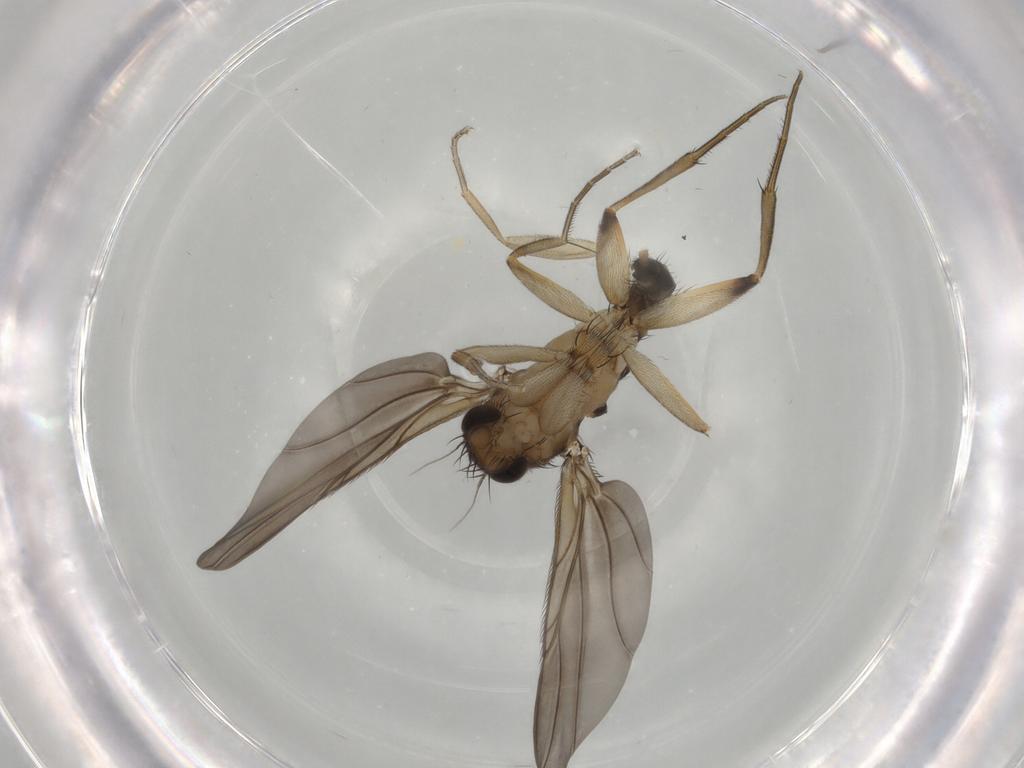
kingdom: Animalia
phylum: Arthropoda
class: Insecta
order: Diptera
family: Phoridae
